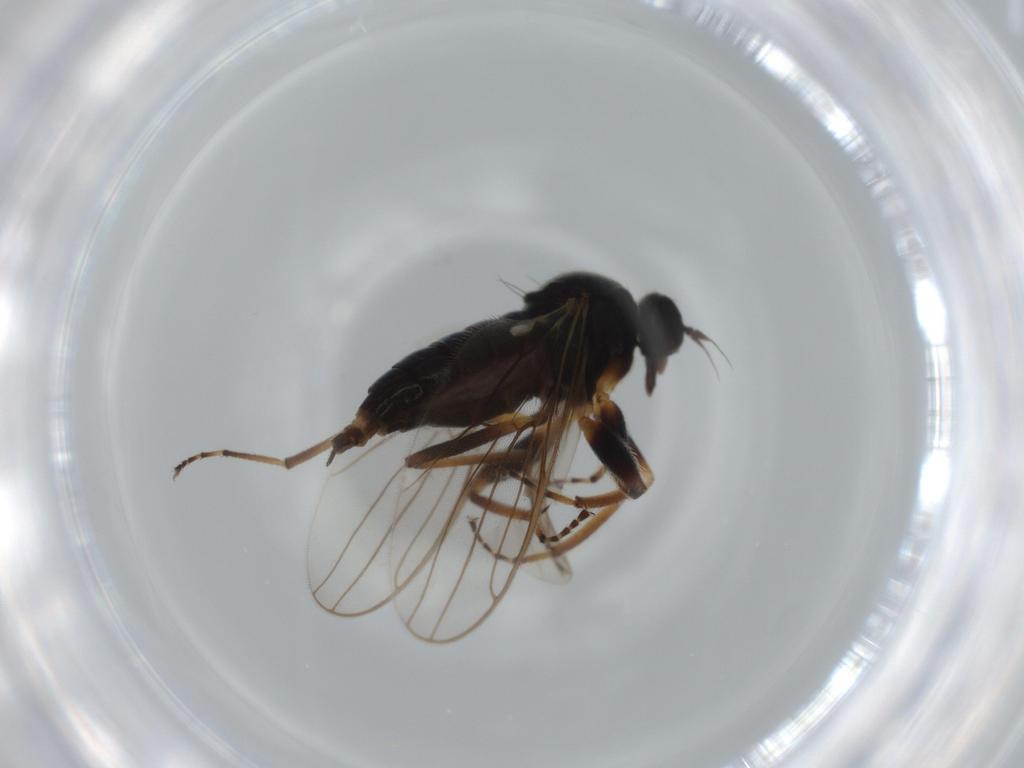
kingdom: Animalia
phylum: Arthropoda
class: Insecta
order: Diptera
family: Hybotidae
